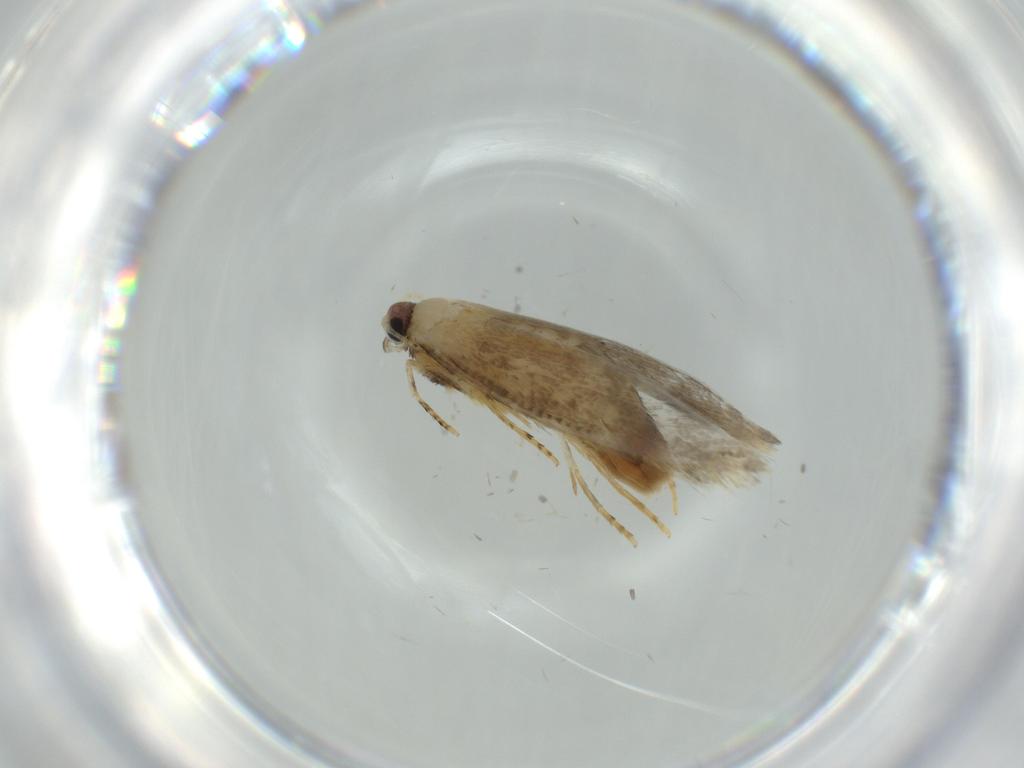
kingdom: Animalia
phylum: Arthropoda
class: Insecta
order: Lepidoptera
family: Tineidae
